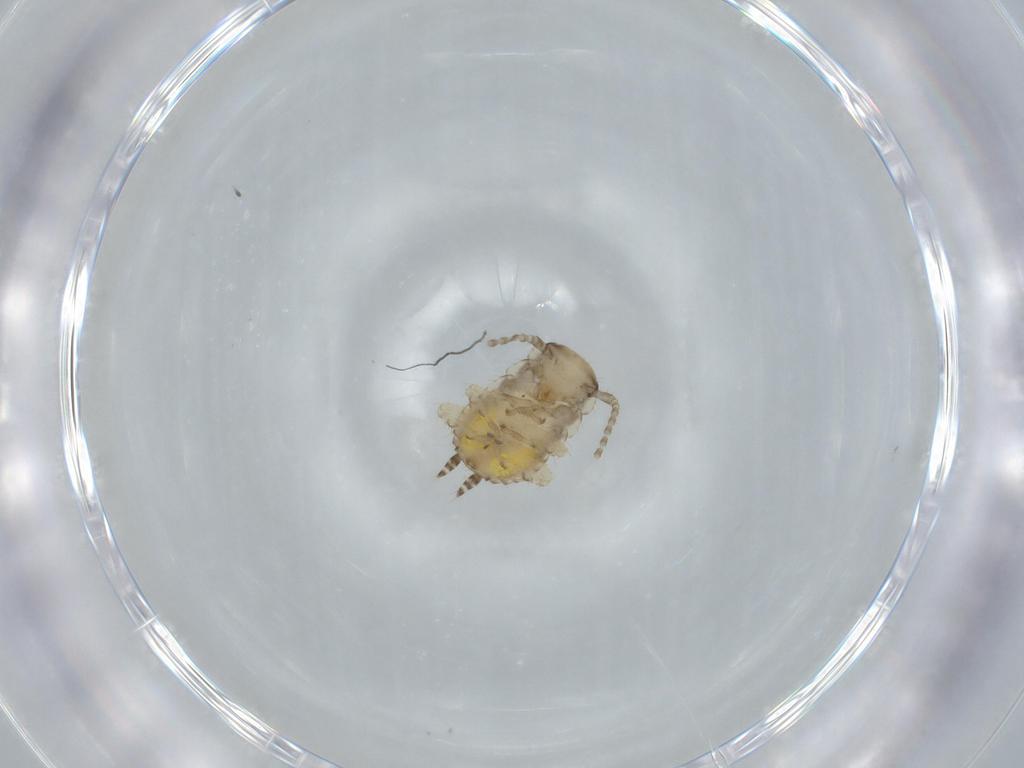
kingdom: Animalia
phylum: Arthropoda
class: Insecta
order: Blattodea
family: Ectobiidae
